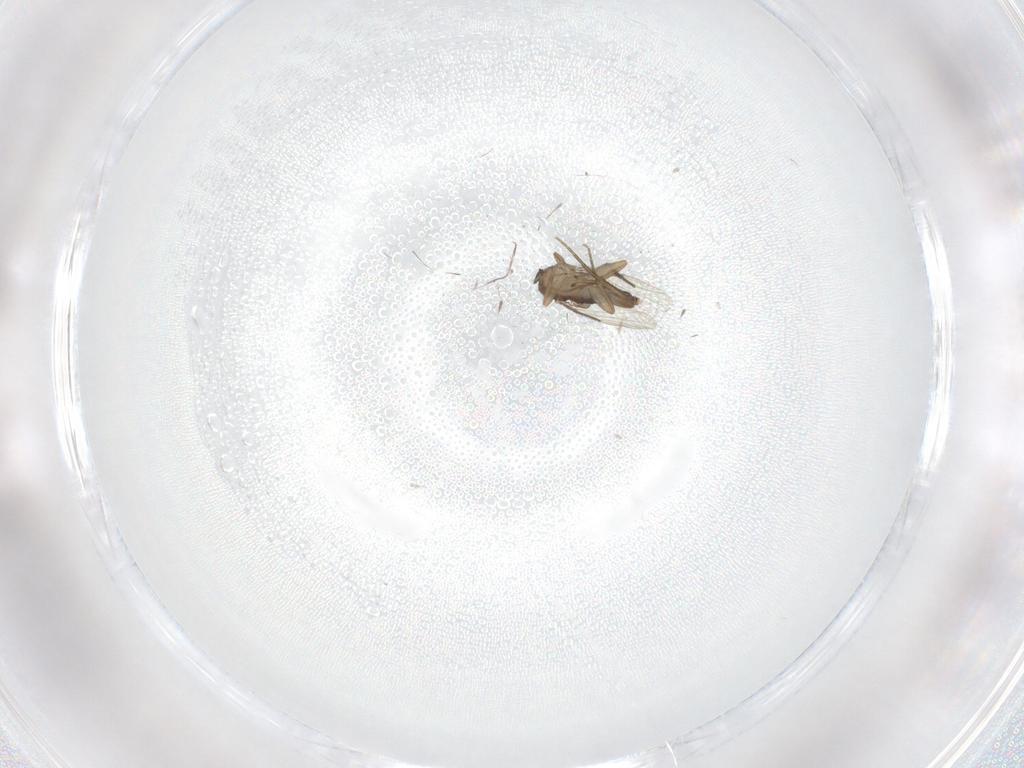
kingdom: Animalia
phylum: Arthropoda
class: Insecta
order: Diptera
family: Phoridae
